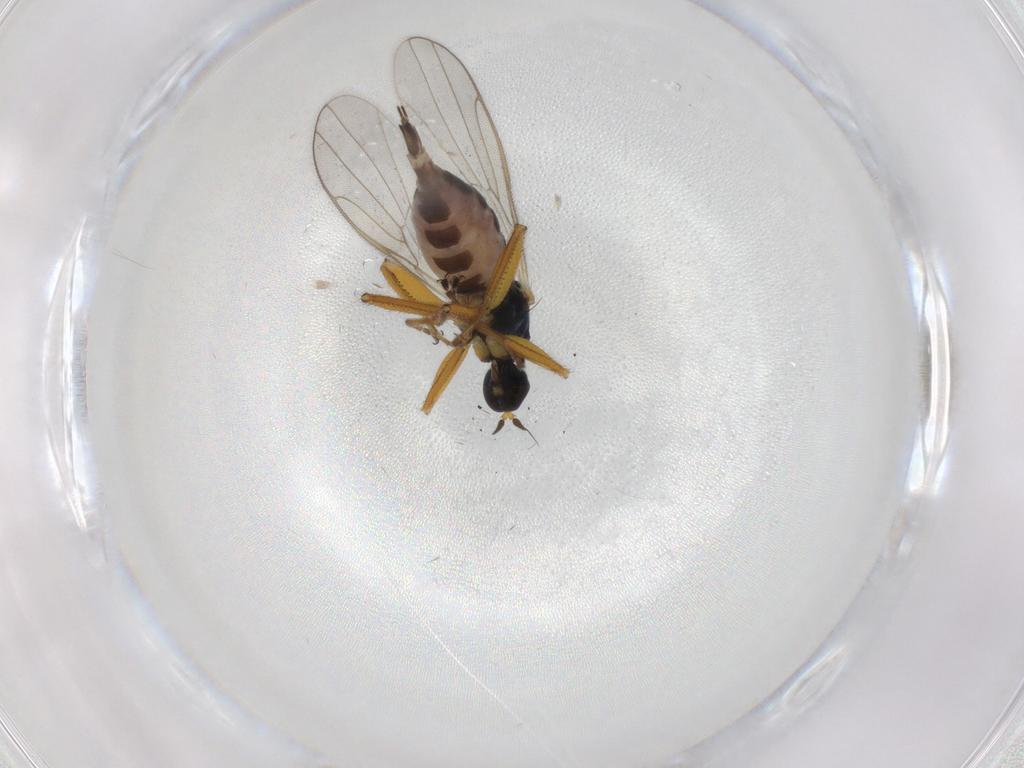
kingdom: Animalia
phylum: Arthropoda
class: Insecta
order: Diptera
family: Hybotidae
